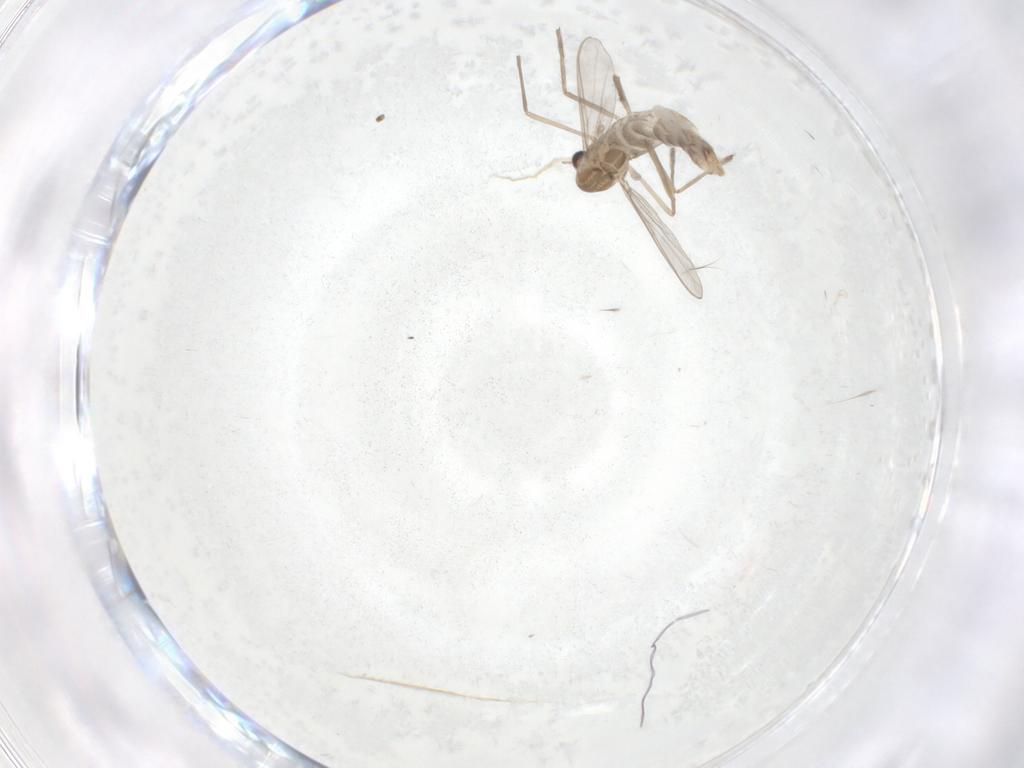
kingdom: Animalia
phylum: Arthropoda
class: Insecta
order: Diptera
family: Chironomidae
